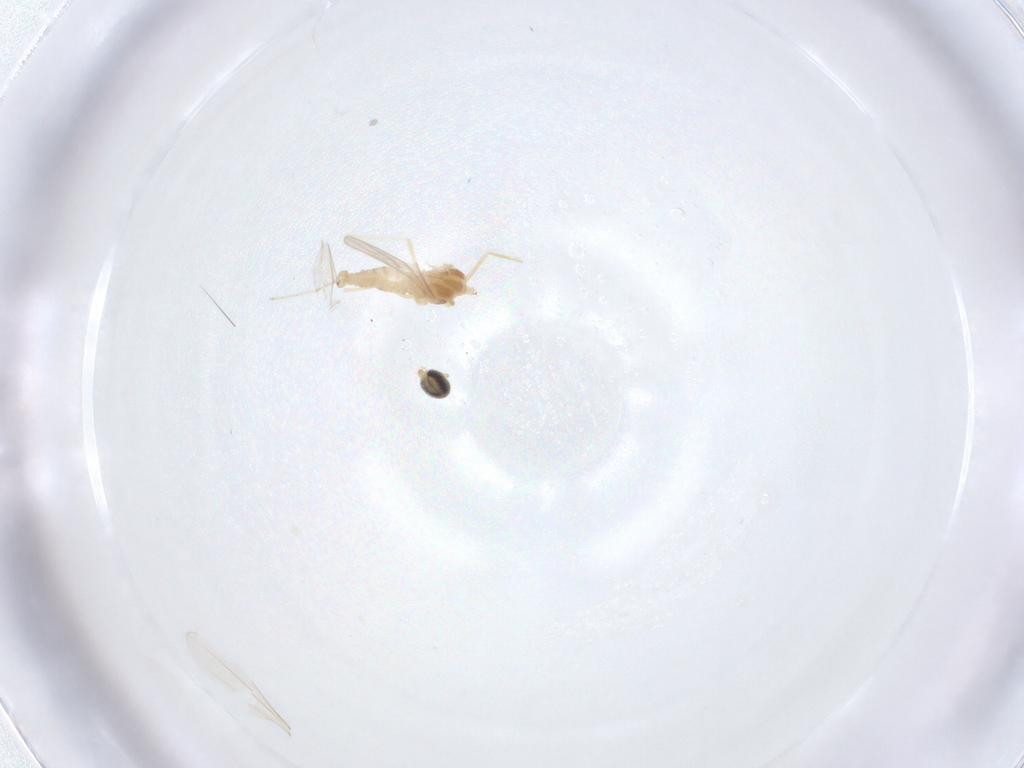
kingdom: Animalia
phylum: Arthropoda
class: Insecta
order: Diptera
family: Cecidomyiidae
